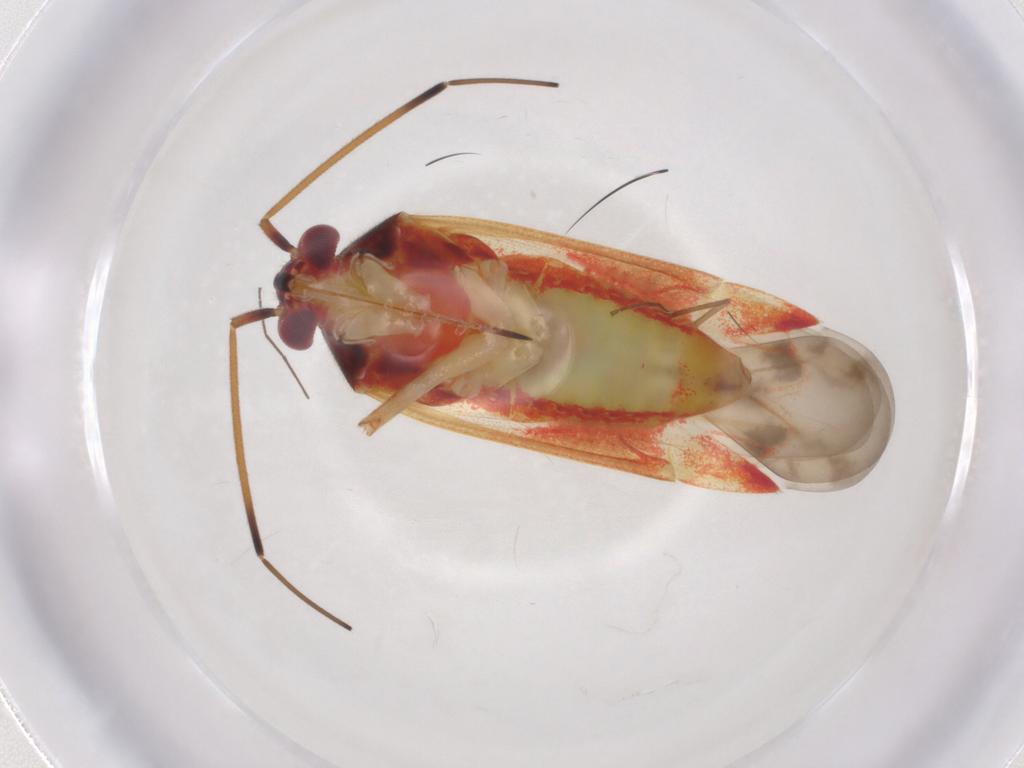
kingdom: Animalia
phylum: Arthropoda
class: Insecta
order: Hemiptera
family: Miridae
